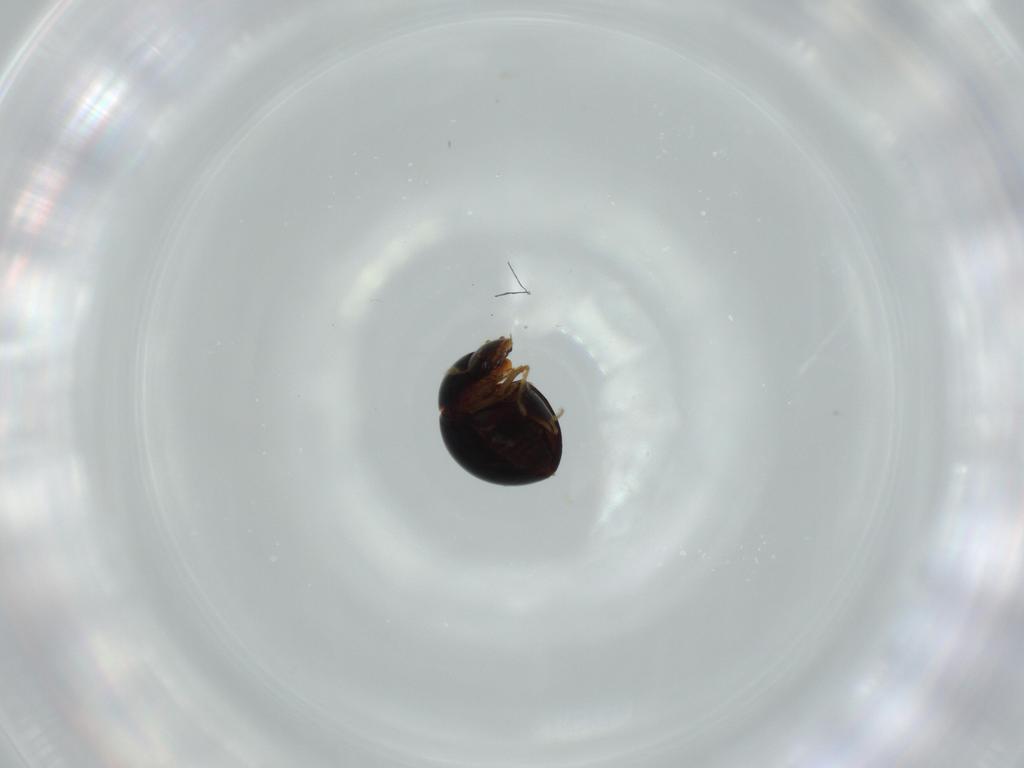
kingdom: Animalia
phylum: Arthropoda
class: Insecta
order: Coleoptera
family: Clambidae
